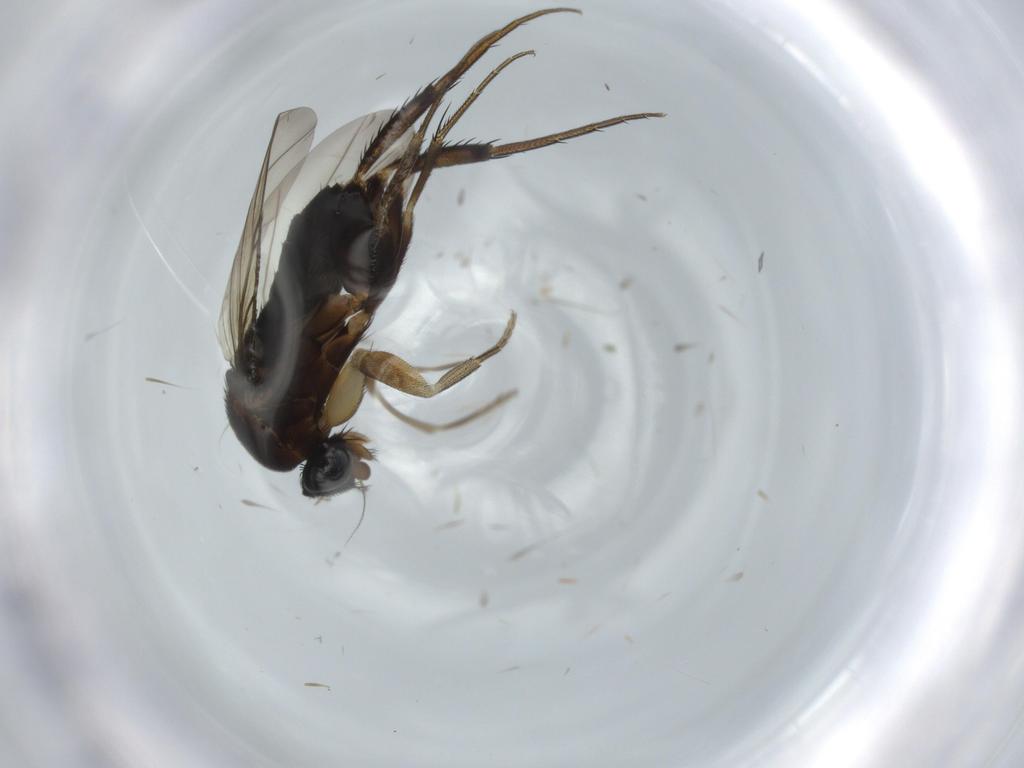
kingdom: Animalia
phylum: Arthropoda
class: Insecta
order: Diptera
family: Phoridae
